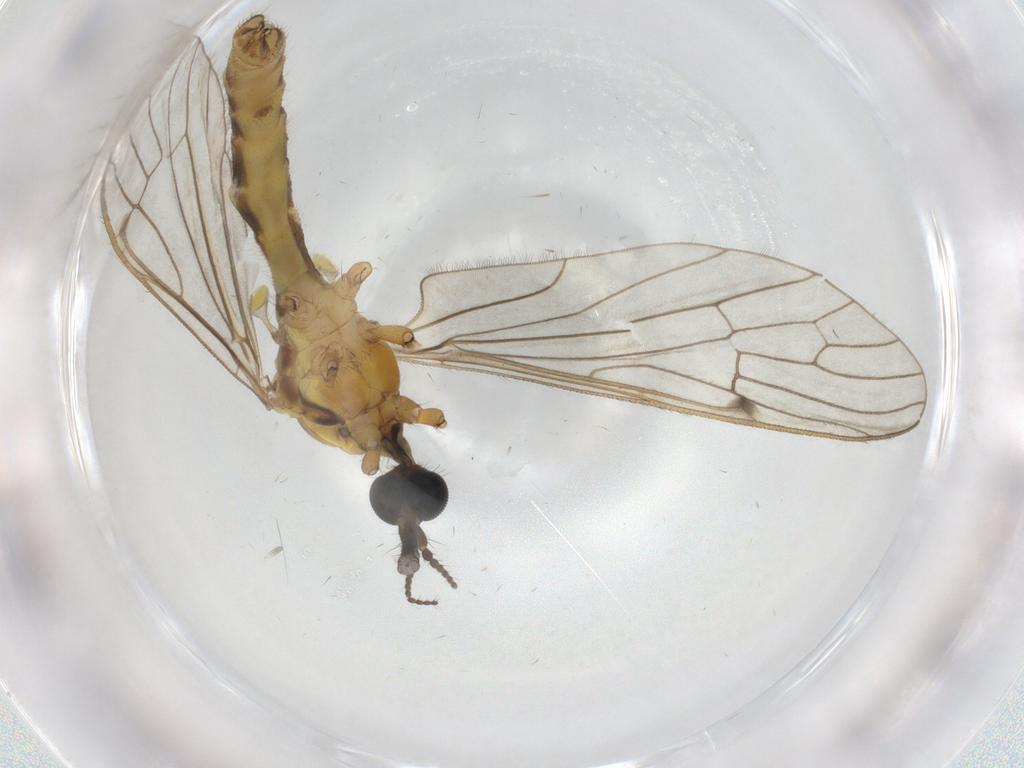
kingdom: Animalia
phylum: Arthropoda
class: Insecta
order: Diptera
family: Limoniidae
